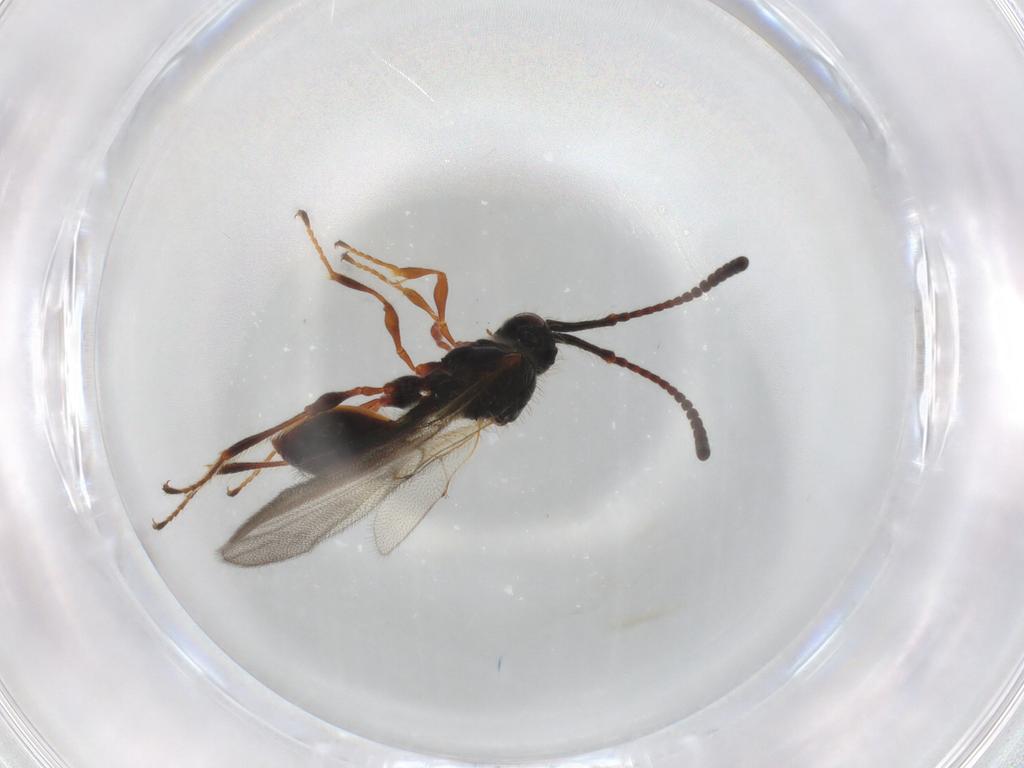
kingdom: Animalia
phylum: Arthropoda
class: Insecta
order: Hymenoptera
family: Diapriidae
